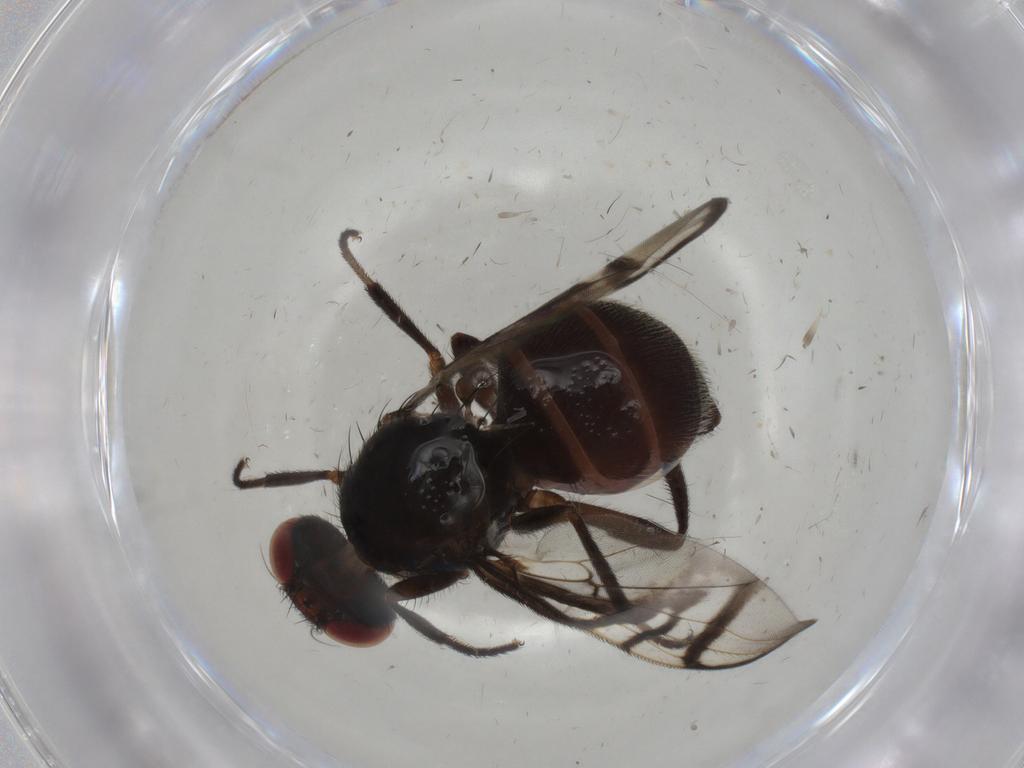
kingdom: Animalia
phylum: Arthropoda
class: Insecta
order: Diptera
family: Platystomatidae
